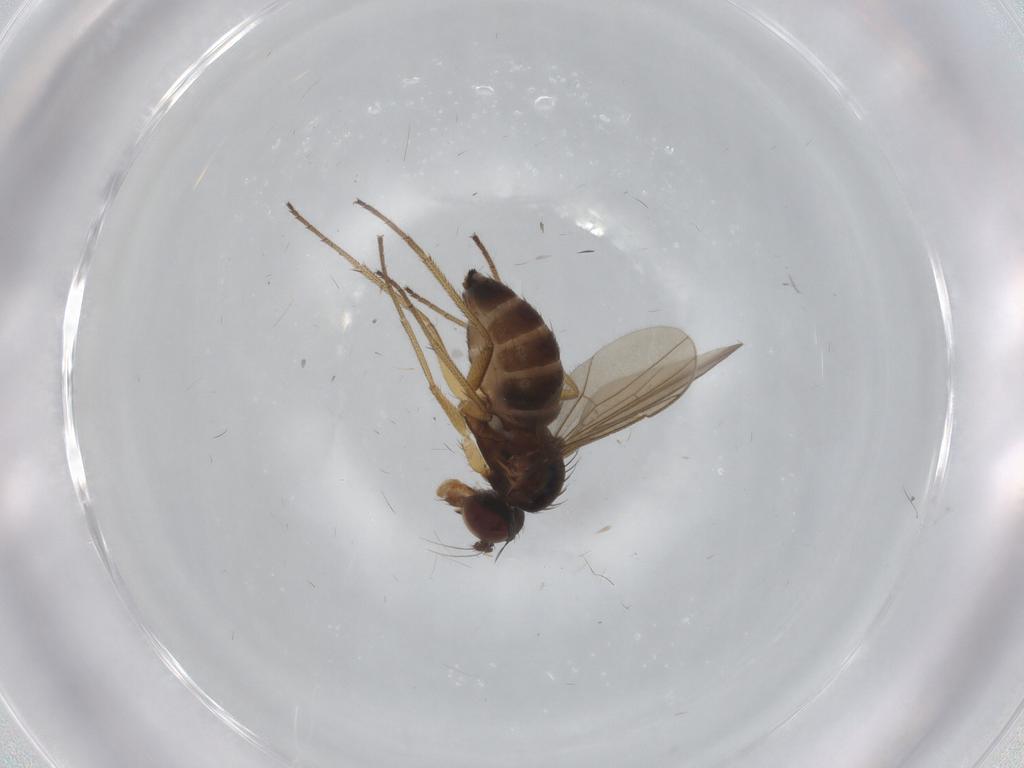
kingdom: Animalia
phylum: Arthropoda
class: Insecta
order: Diptera
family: Dolichopodidae
